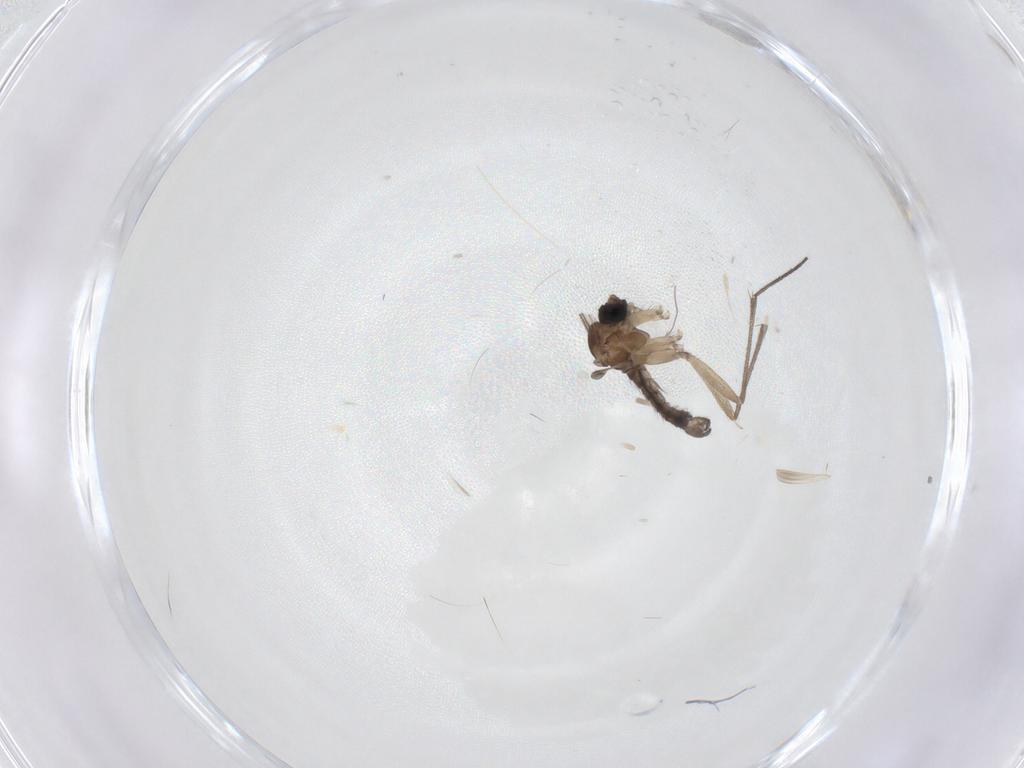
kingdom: Animalia
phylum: Arthropoda
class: Insecta
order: Diptera
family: Sciaridae
